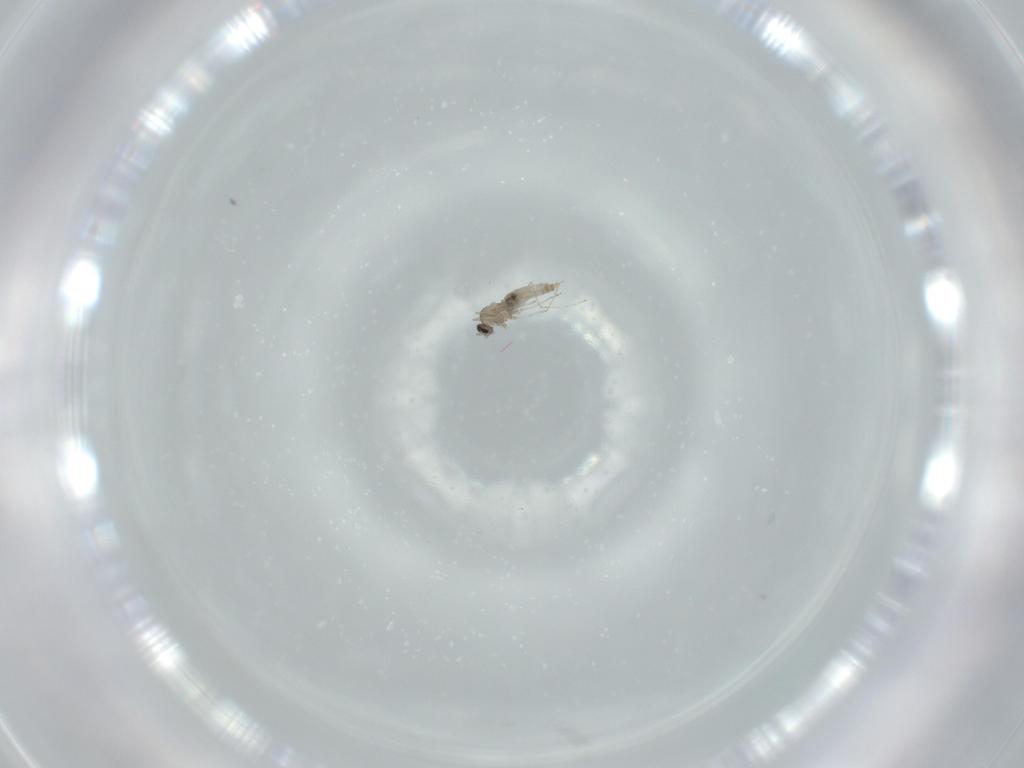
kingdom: Animalia
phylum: Arthropoda
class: Insecta
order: Diptera
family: Cecidomyiidae
